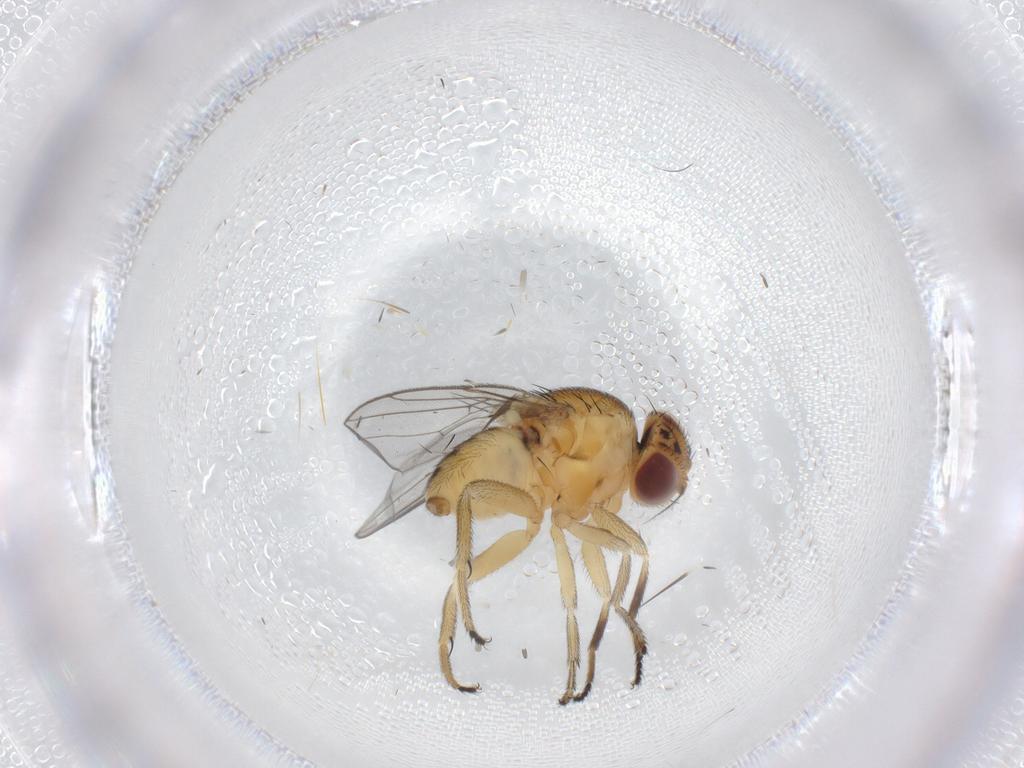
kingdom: Animalia
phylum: Arthropoda
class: Insecta
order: Diptera
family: Chloropidae
